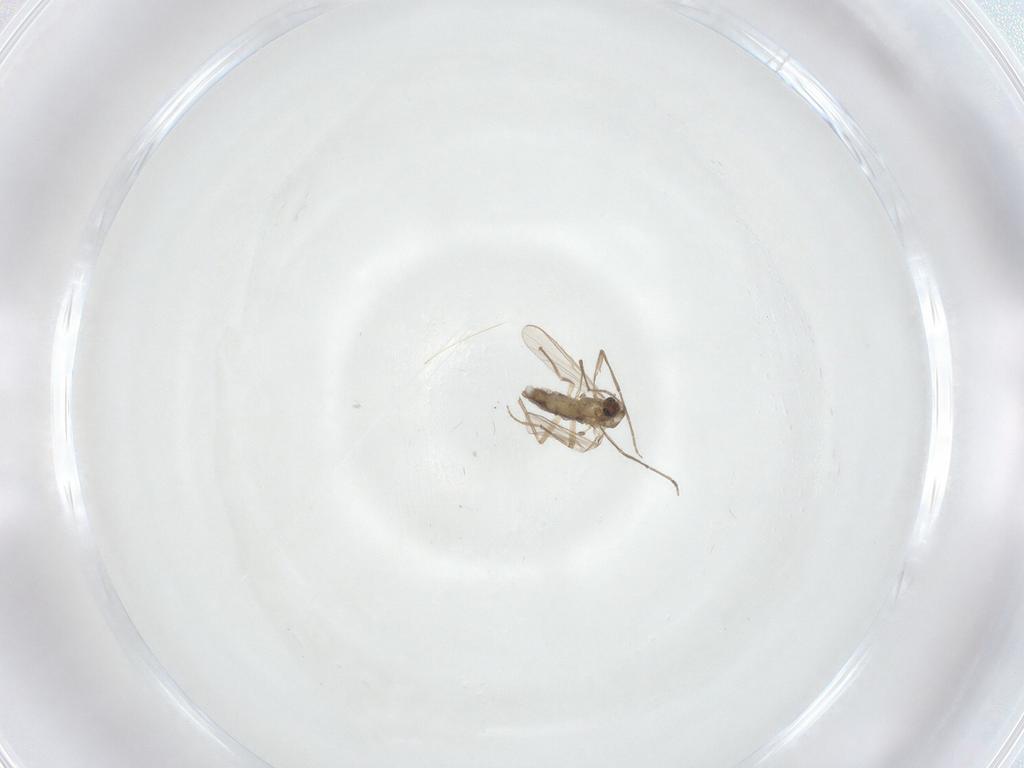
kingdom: Animalia
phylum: Arthropoda
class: Insecta
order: Diptera
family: Chironomidae
